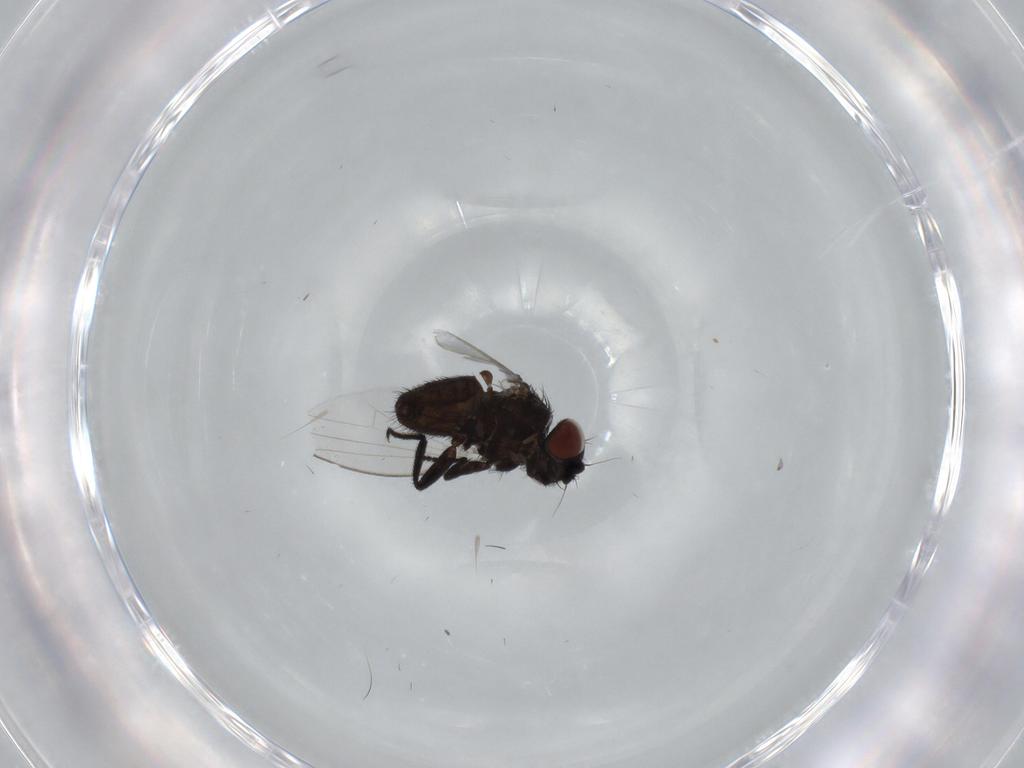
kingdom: Animalia
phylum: Arthropoda
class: Insecta
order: Diptera
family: Milichiidae
